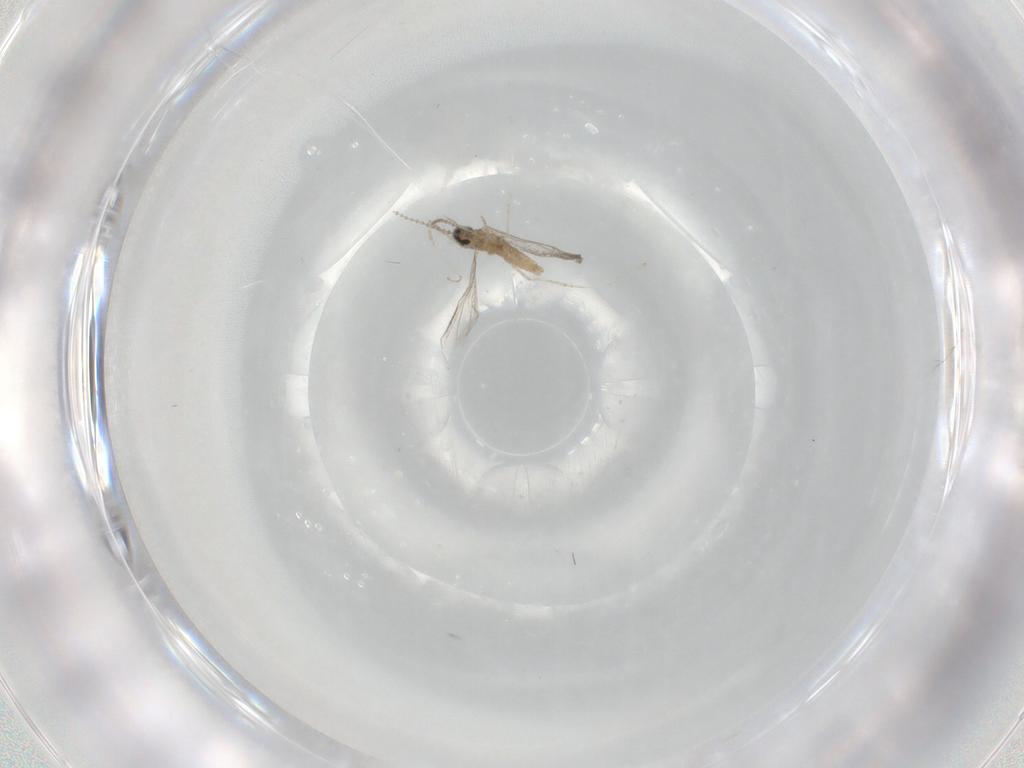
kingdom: Animalia
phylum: Arthropoda
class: Insecta
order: Diptera
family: Cecidomyiidae
